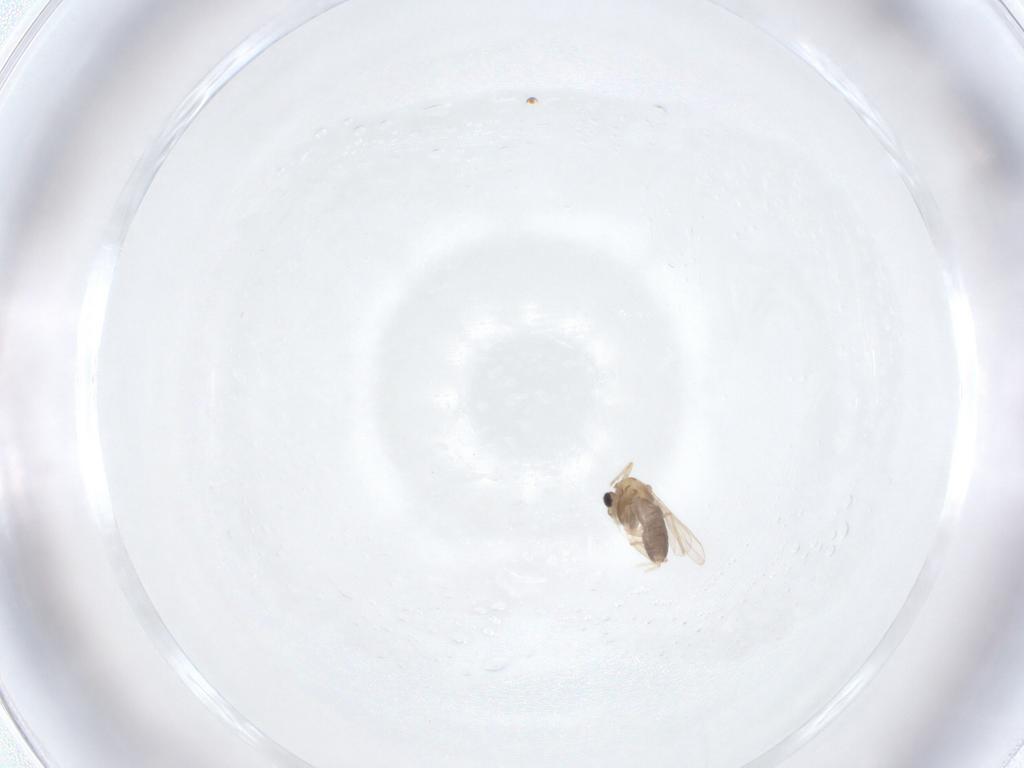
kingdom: Animalia
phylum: Arthropoda
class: Insecta
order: Diptera
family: Chironomidae
